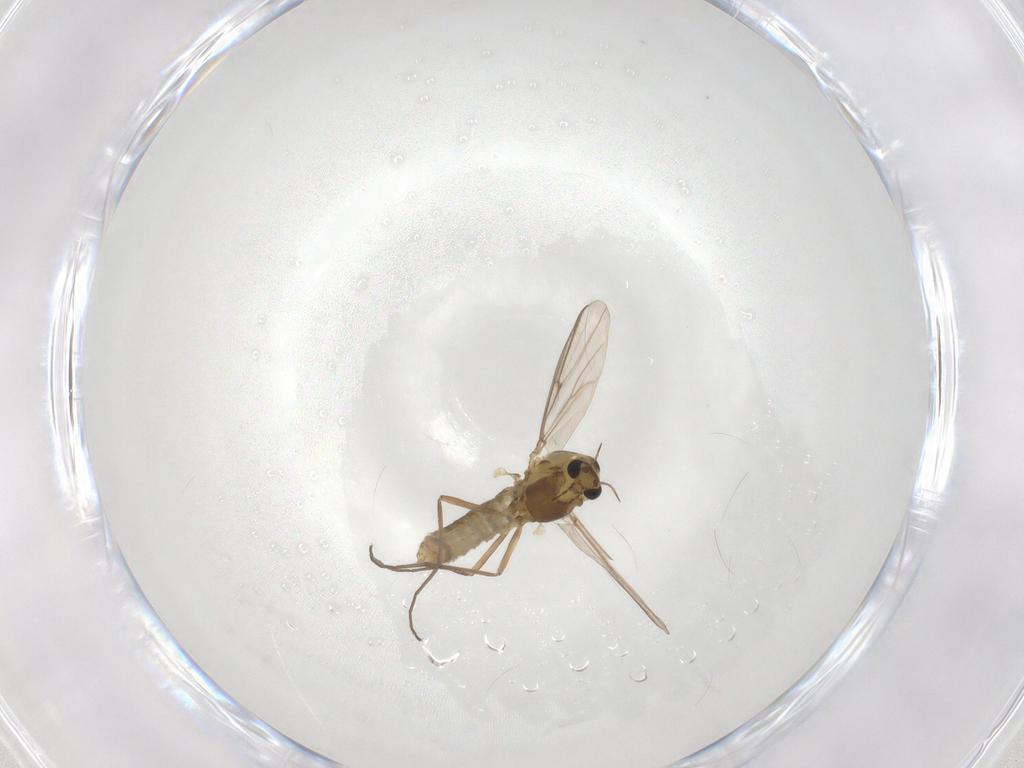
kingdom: Animalia
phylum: Arthropoda
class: Insecta
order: Diptera
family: Chironomidae
